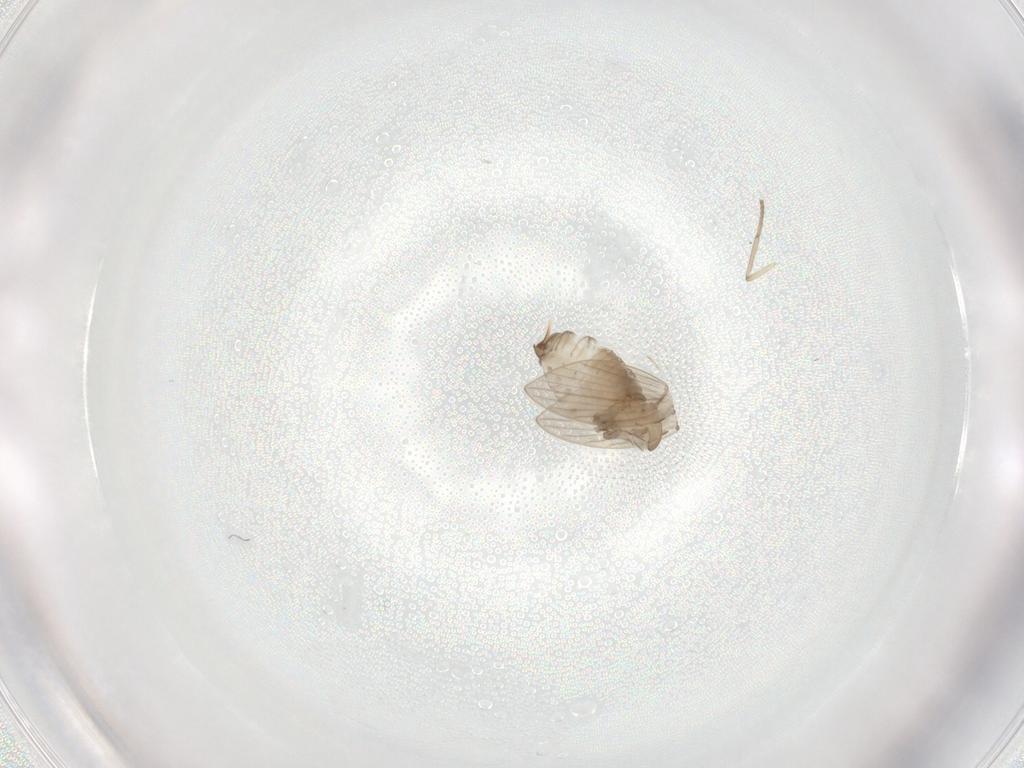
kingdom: Animalia
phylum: Arthropoda
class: Insecta
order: Diptera
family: Psychodidae
